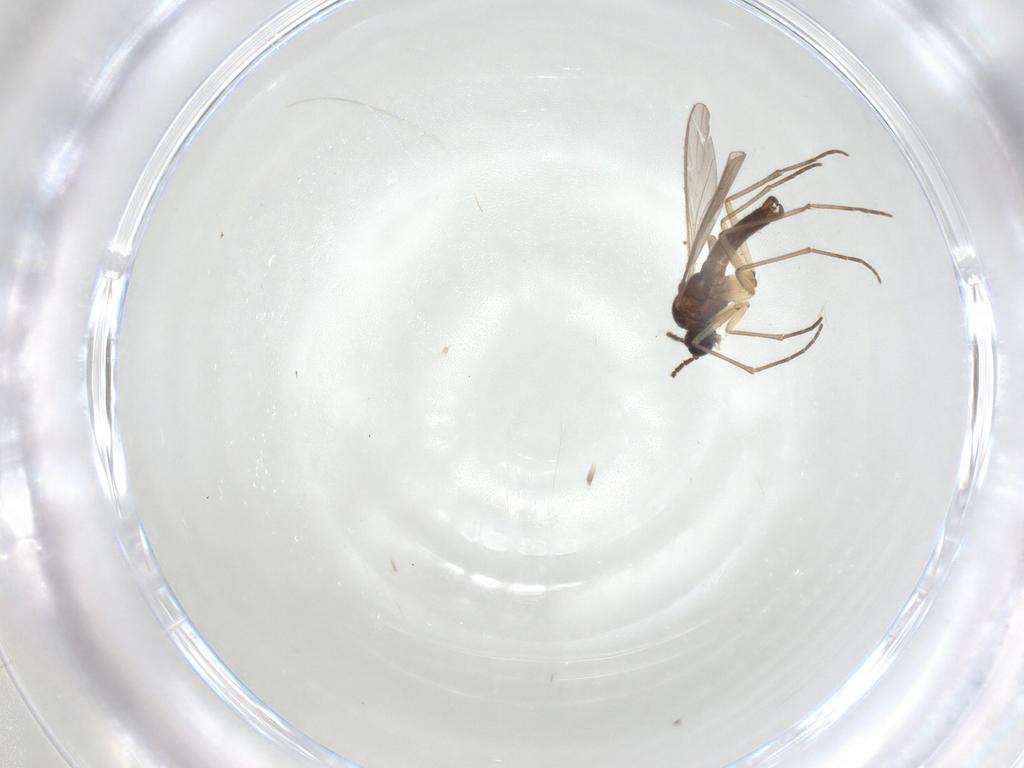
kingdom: Animalia
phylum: Arthropoda
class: Insecta
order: Diptera
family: Sciaridae
